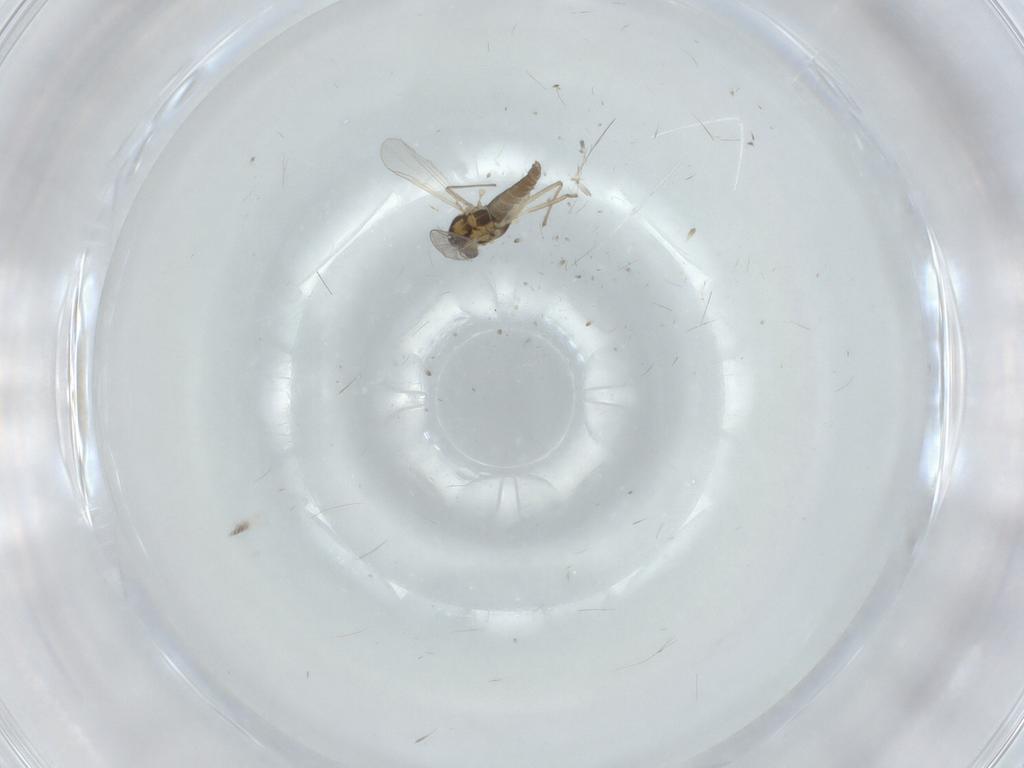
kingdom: Animalia
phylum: Arthropoda
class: Insecta
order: Diptera
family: Chironomidae
